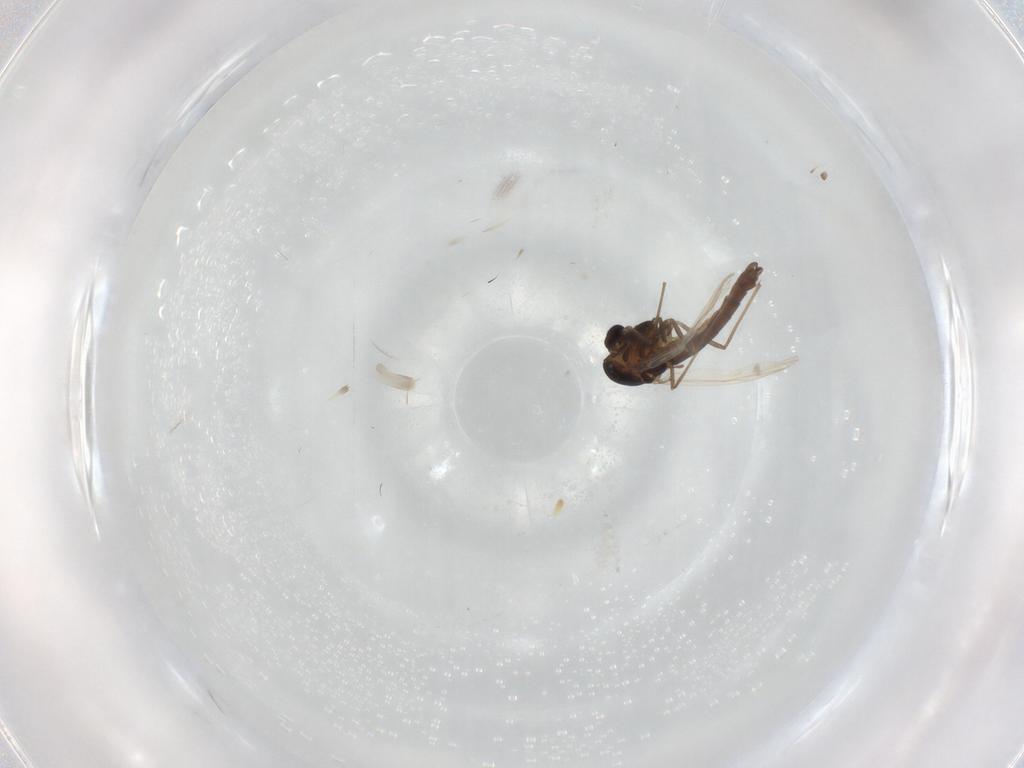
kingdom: Animalia
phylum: Arthropoda
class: Insecta
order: Diptera
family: Chironomidae
